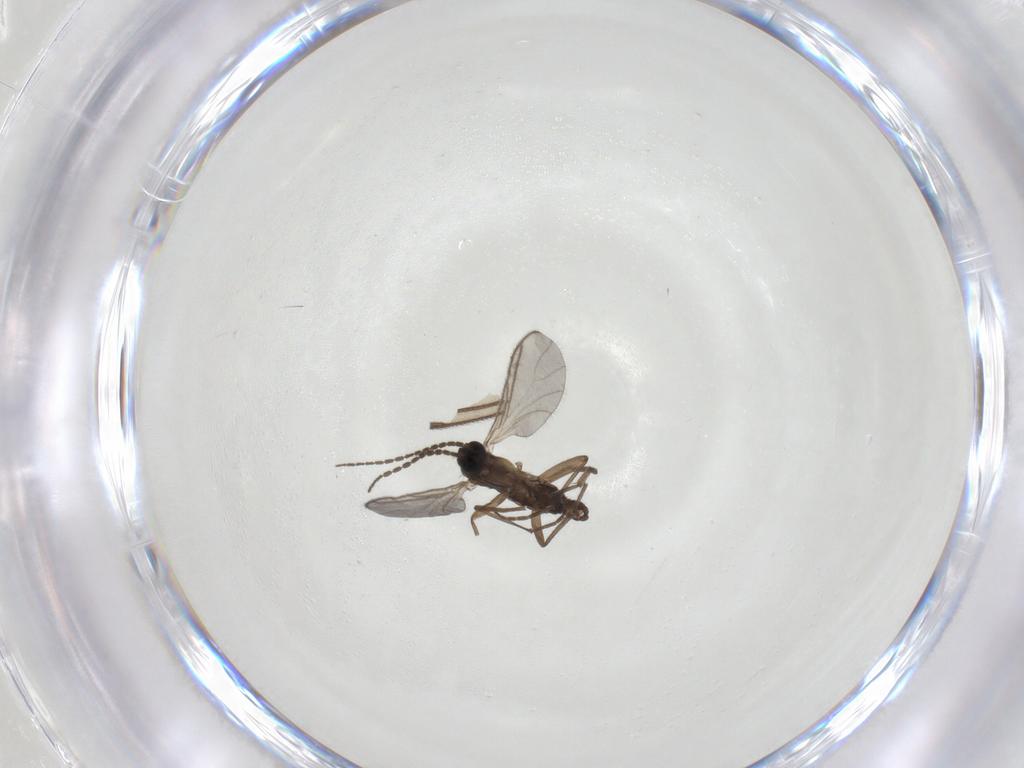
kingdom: Animalia
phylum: Arthropoda
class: Insecta
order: Diptera
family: Sciaridae
